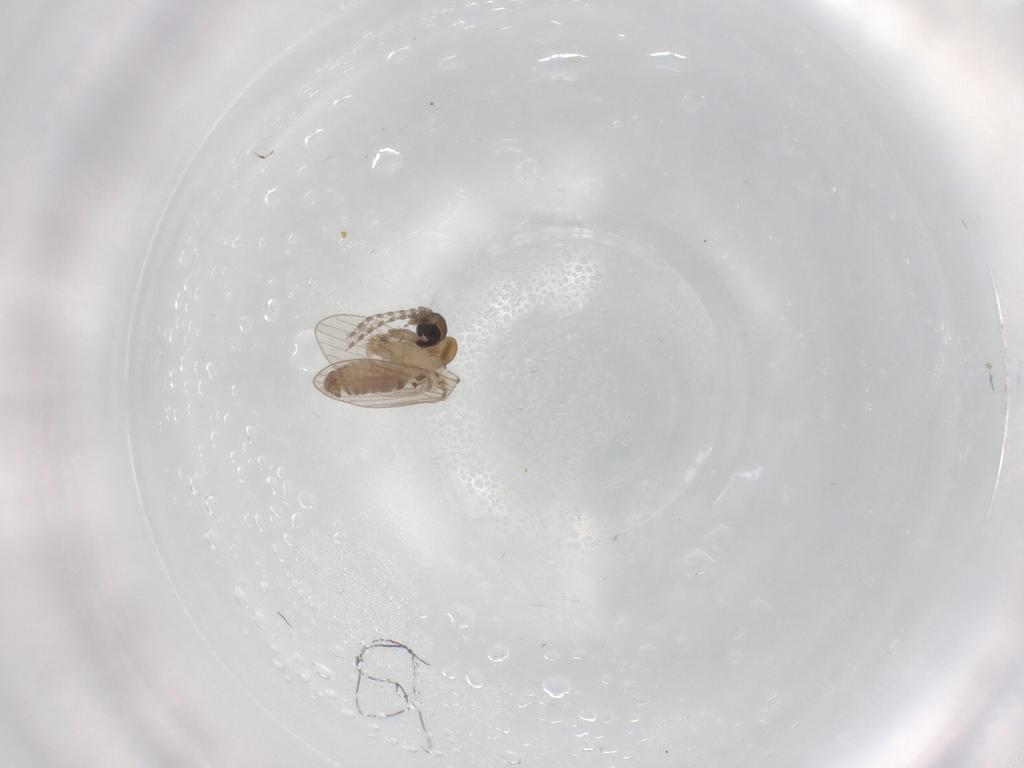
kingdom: Animalia
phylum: Arthropoda
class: Insecta
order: Diptera
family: Psychodidae
